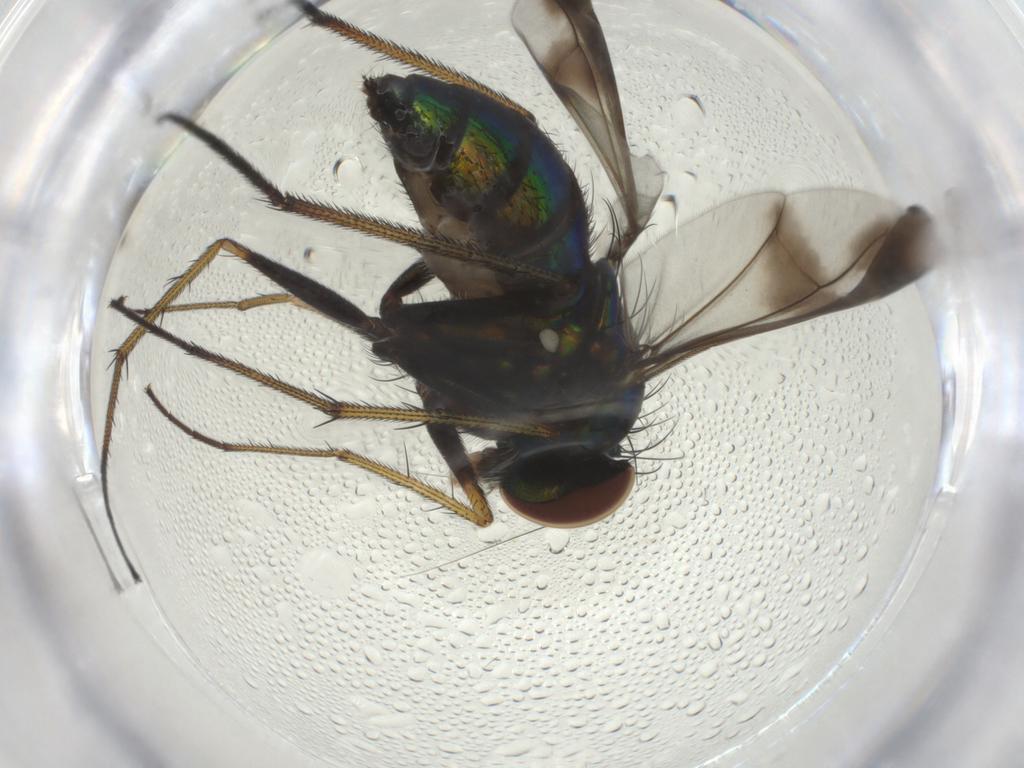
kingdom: Animalia
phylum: Arthropoda
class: Insecta
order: Diptera
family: Dolichopodidae
